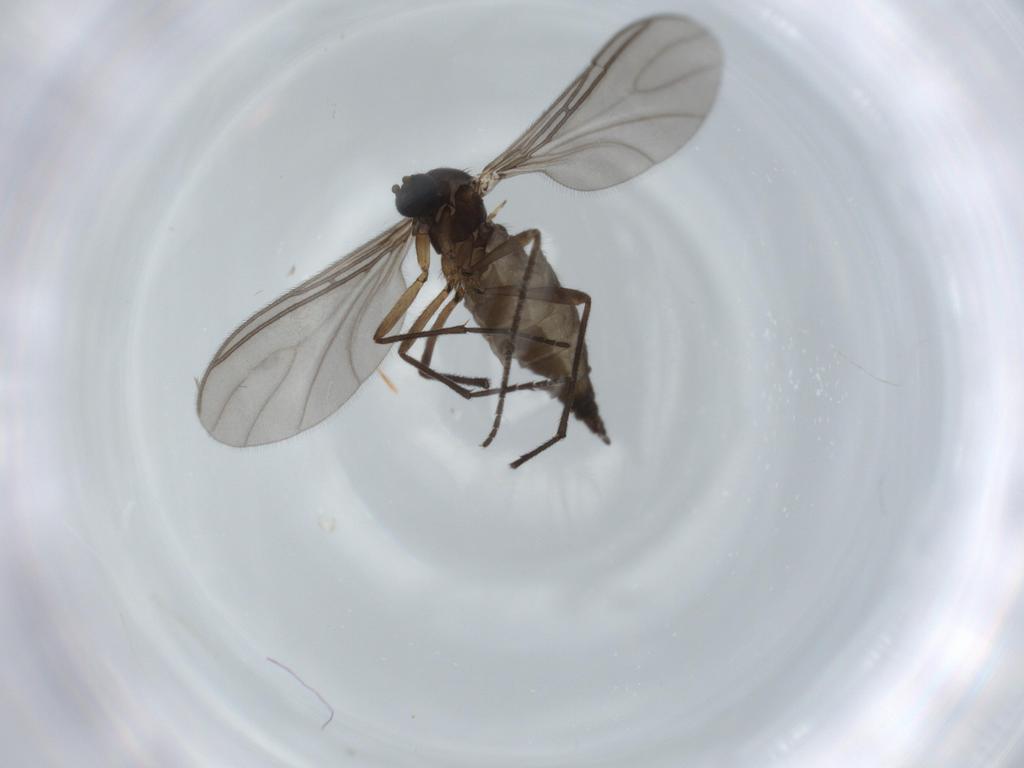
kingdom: Animalia
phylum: Arthropoda
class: Insecta
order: Diptera
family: Sciaridae
